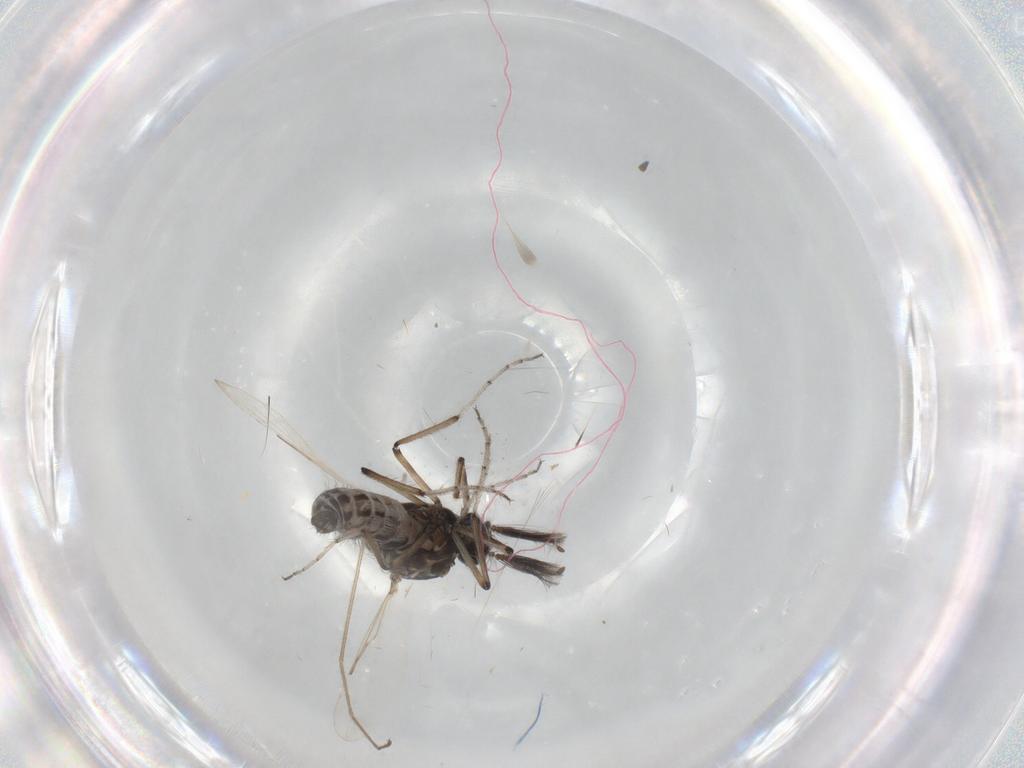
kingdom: Animalia
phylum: Arthropoda
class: Insecta
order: Diptera
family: Ceratopogonidae
